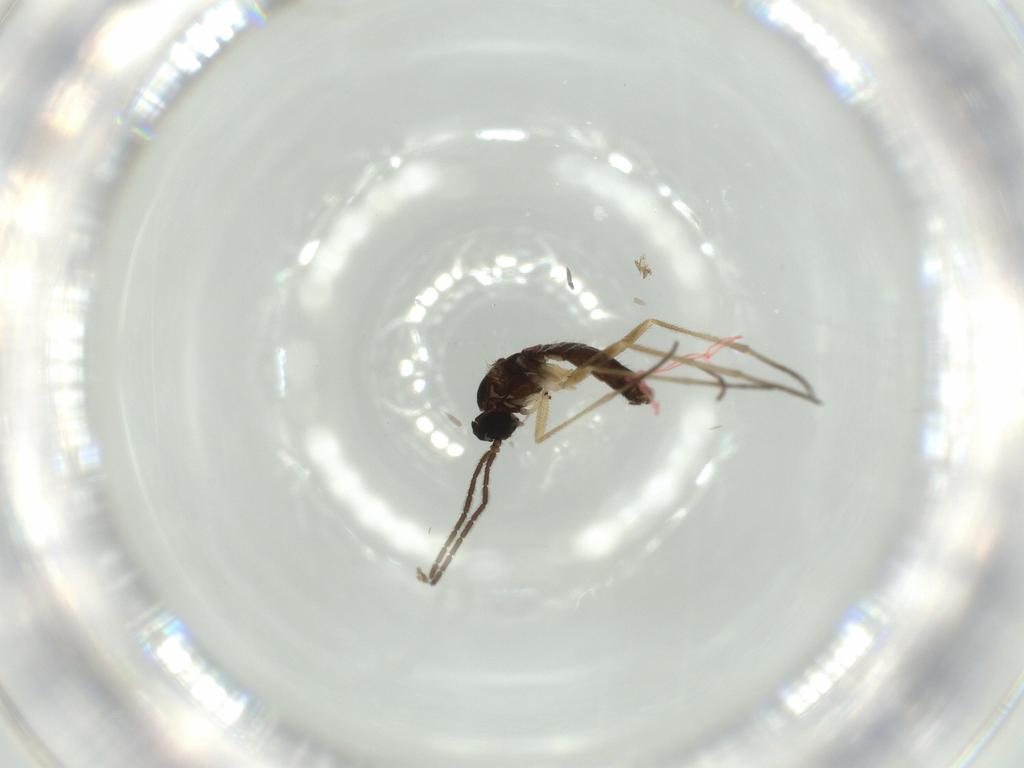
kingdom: Animalia
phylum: Arthropoda
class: Insecta
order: Diptera
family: Sciaridae
